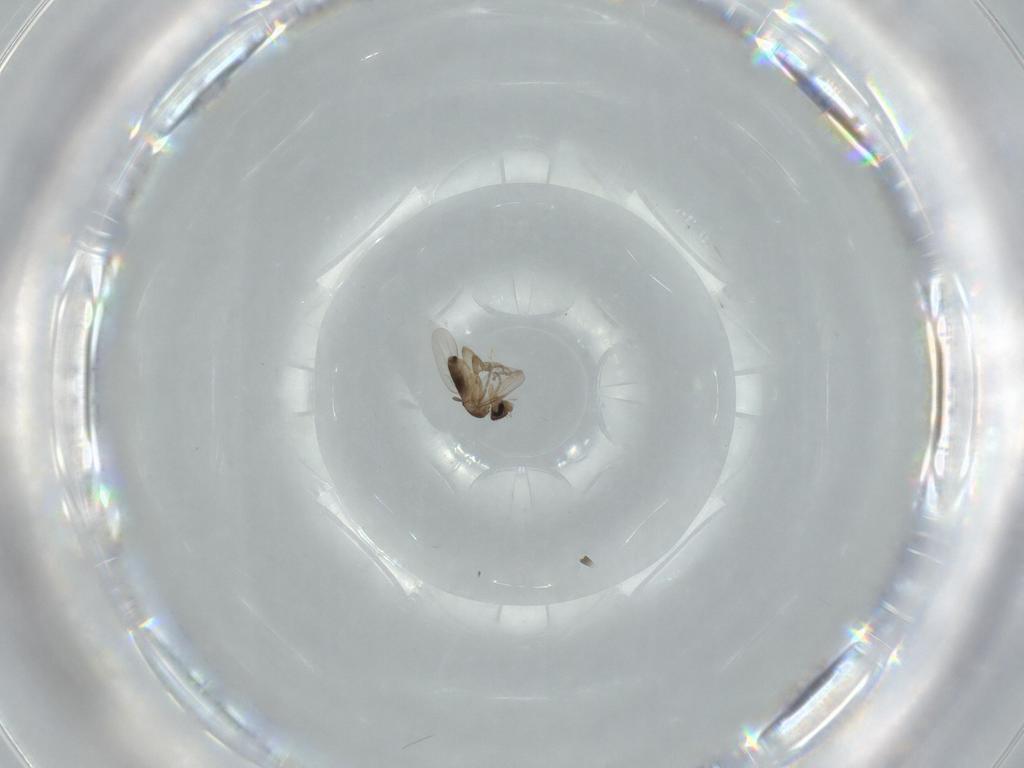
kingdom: Animalia
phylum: Arthropoda
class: Insecta
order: Diptera
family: Phoridae
